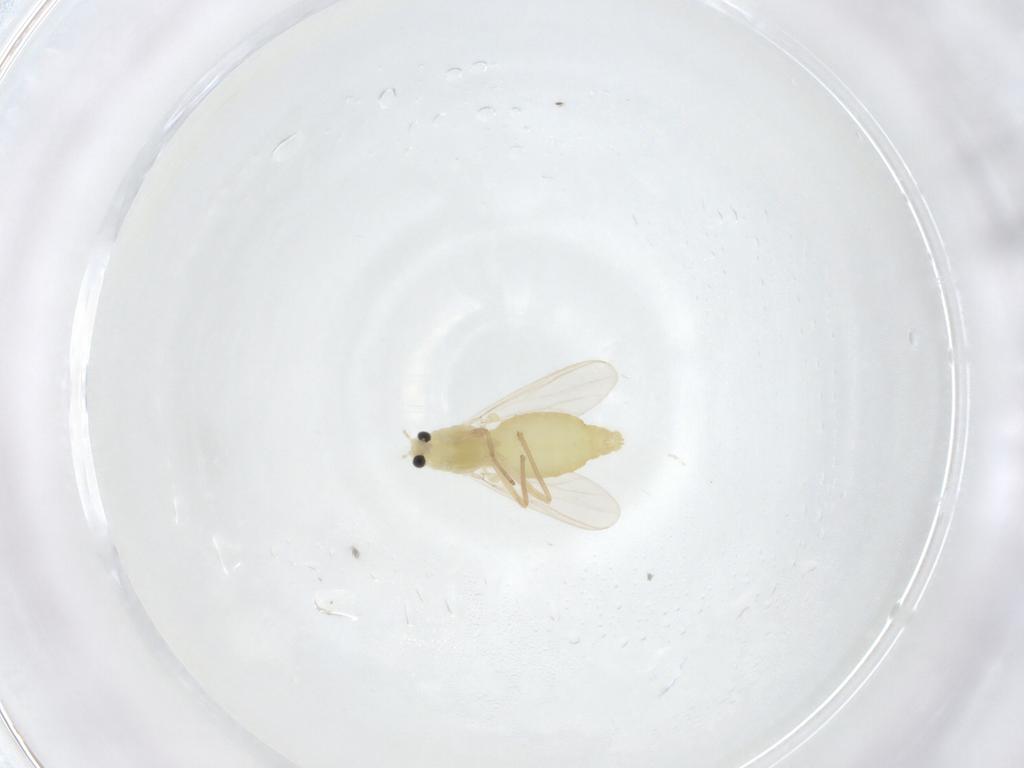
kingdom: Animalia
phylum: Arthropoda
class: Insecta
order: Diptera
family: Chironomidae
